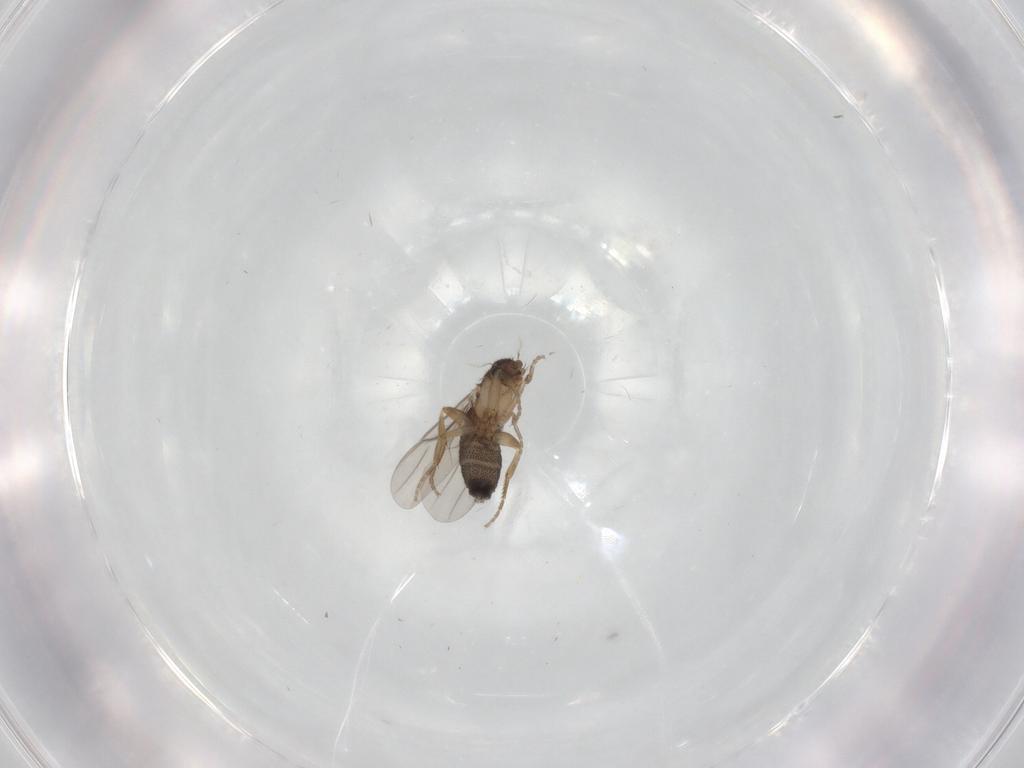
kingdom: Animalia
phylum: Arthropoda
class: Insecta
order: Diptera
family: Phoridae
